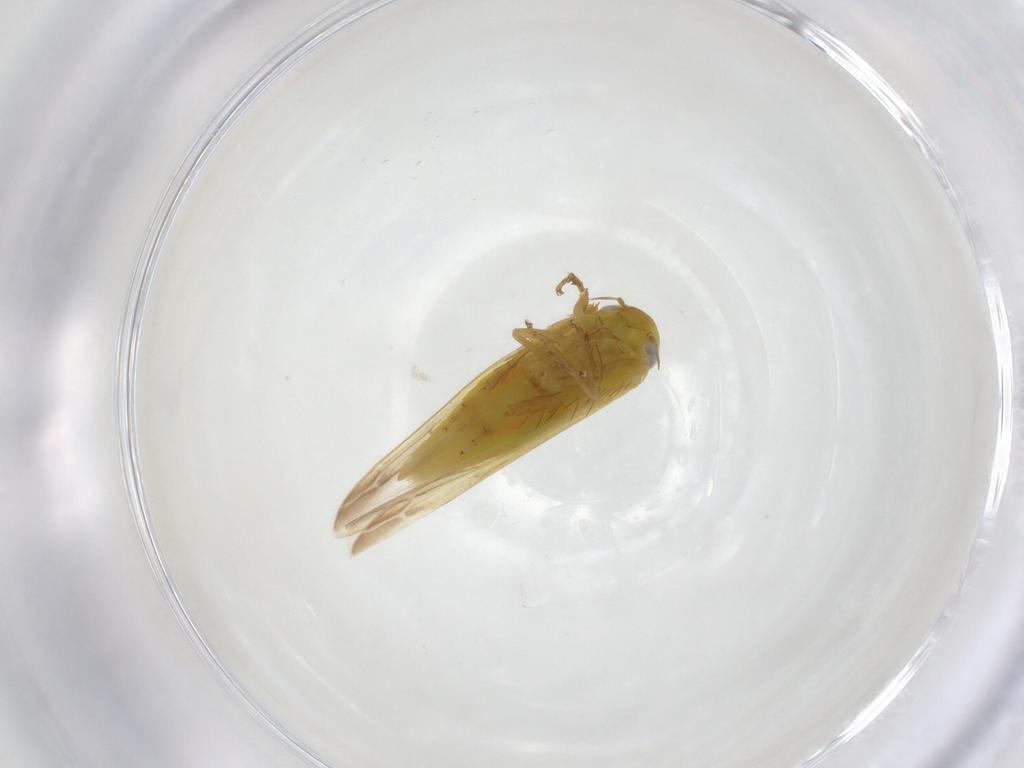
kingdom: Animalia
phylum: Arthropoda
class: Insecta
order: Hemiptera
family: Cicadellidae
